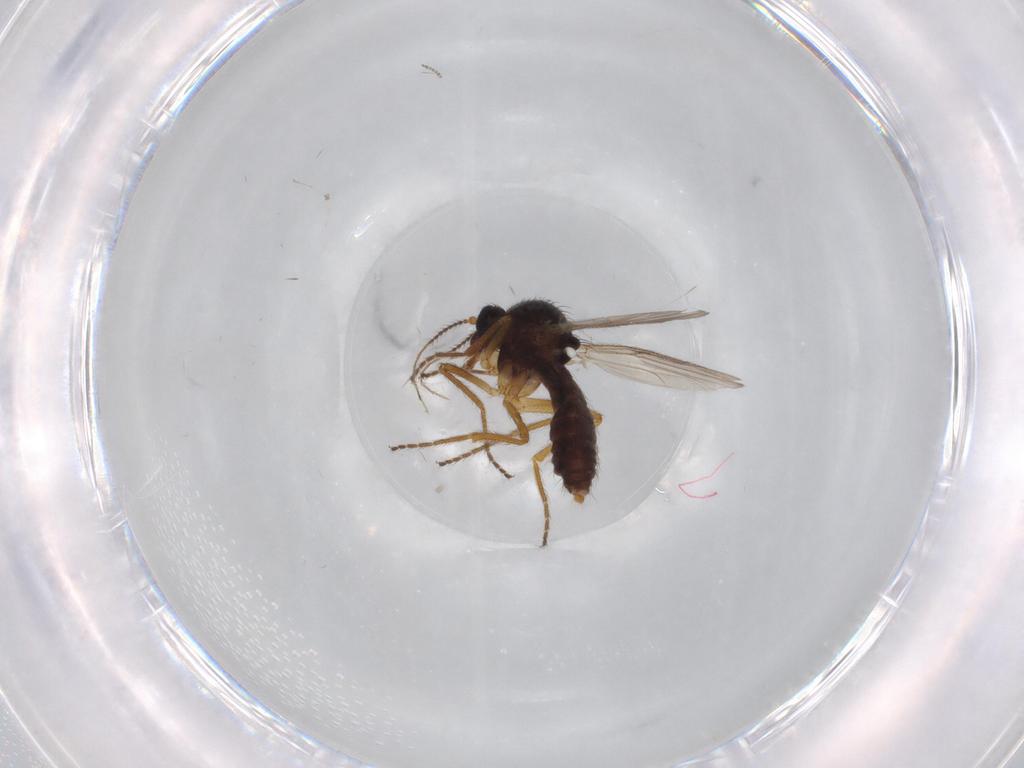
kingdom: Animalia
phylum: Arthropoda
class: Insecta
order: Diptera
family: Ceratopogonidae
